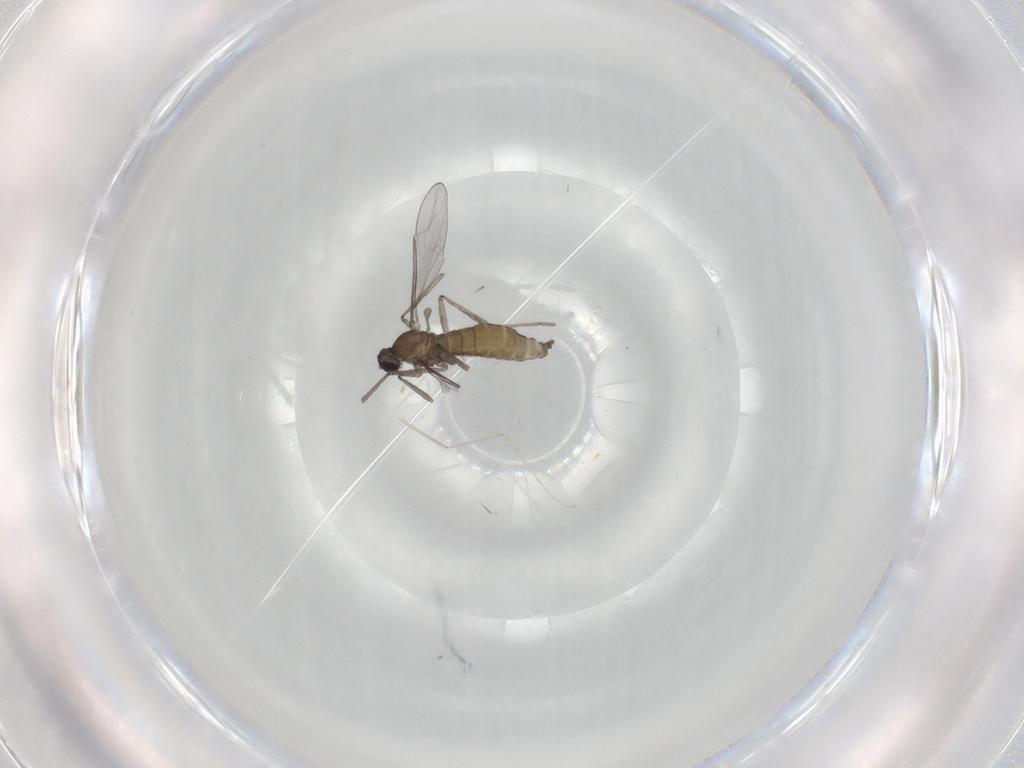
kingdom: Animalia
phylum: Arthropoda
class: Insecta
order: Diptera
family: Cecidomyiidae
